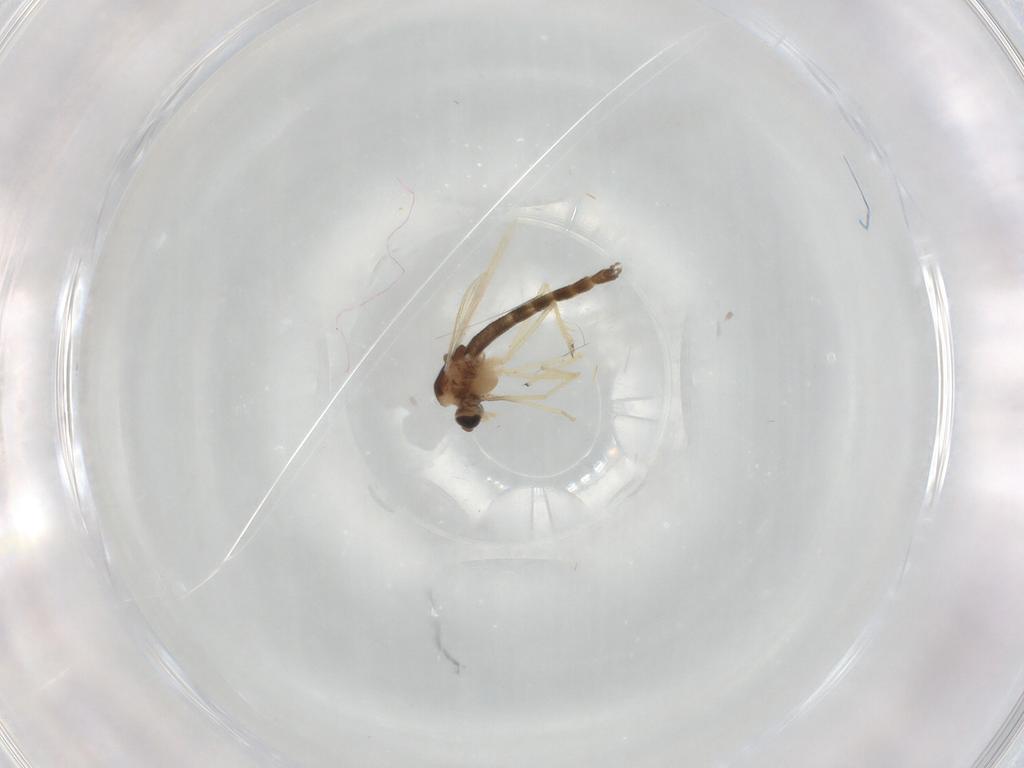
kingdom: Animalia
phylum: Arthropoda
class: Insecta
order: Diptera
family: Chironomidae
